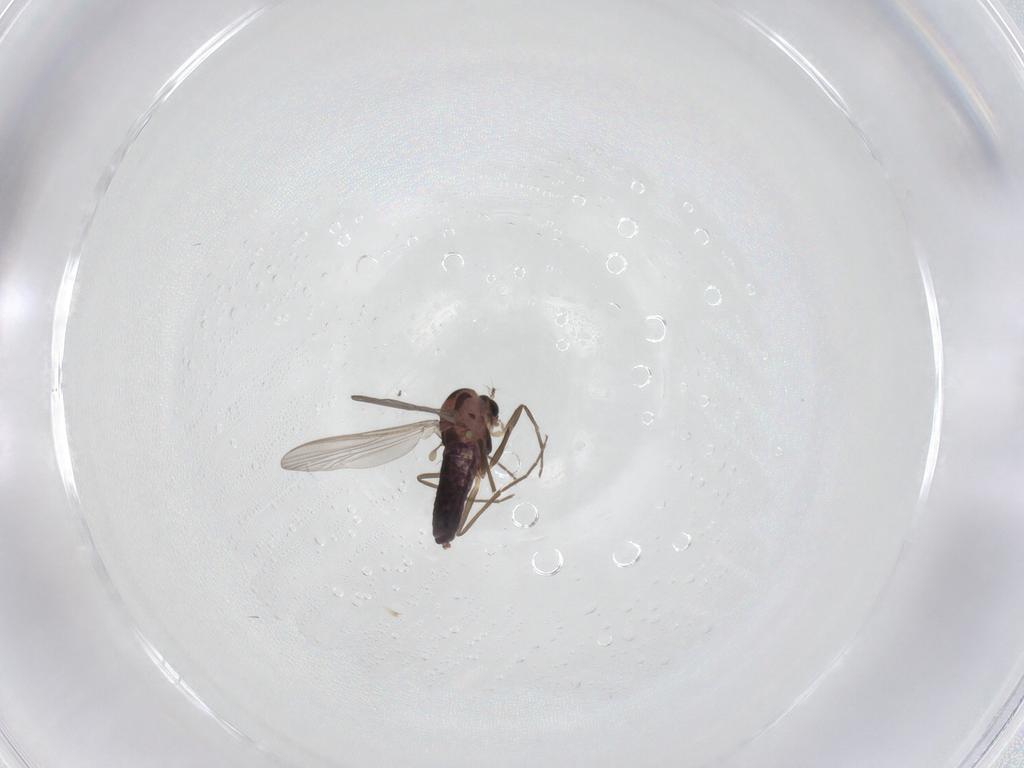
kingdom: Animalia
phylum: Arthropoda
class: Insecta
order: Diptera
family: Chironomidae
